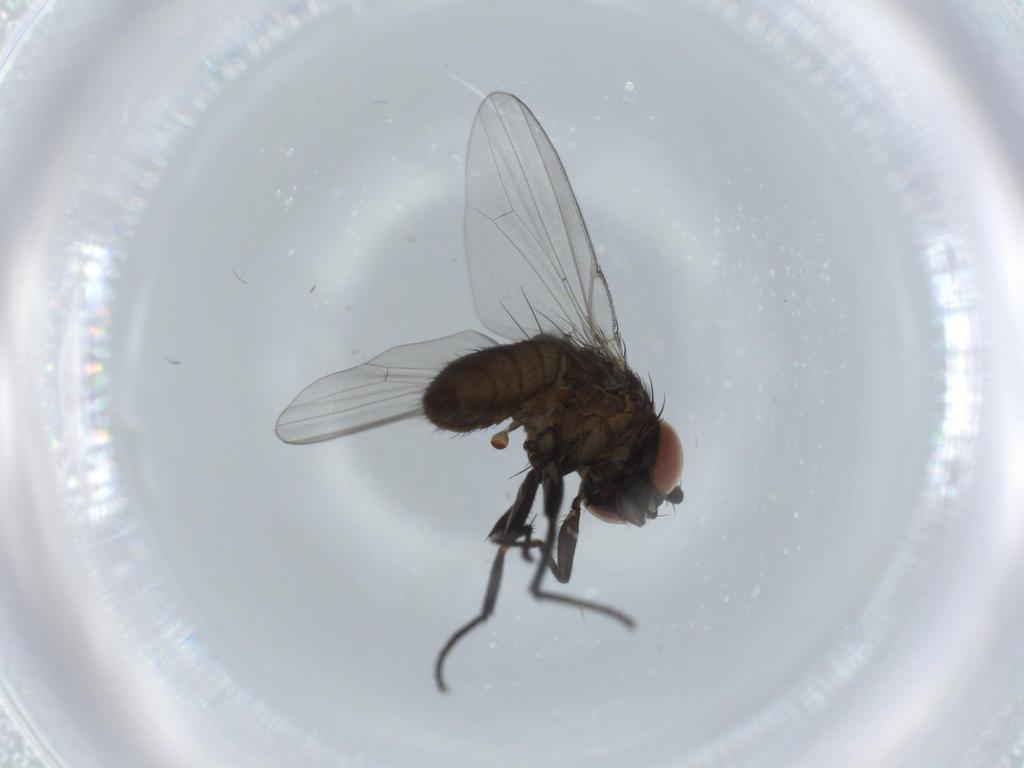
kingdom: Animalia
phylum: Arthropoda
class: Insecta
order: Diptera
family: Milichiidae
